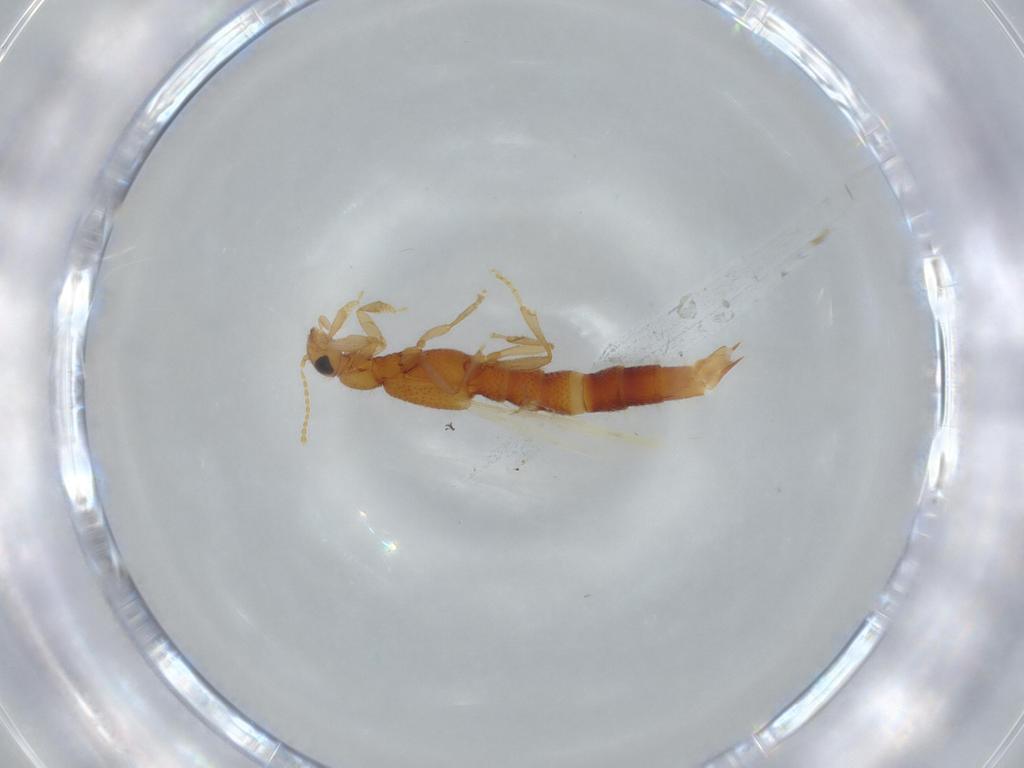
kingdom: Animalia
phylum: Arthropoda
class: Insecta
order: Coleoptera
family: Staphylinidae
